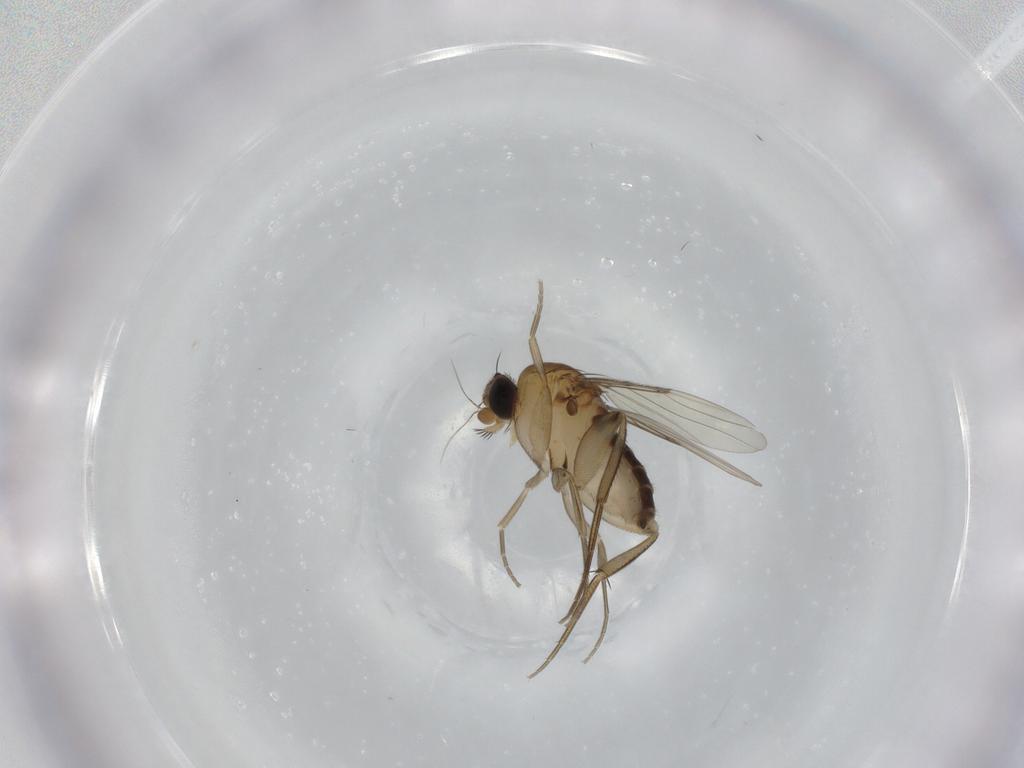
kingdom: Animalia
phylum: Arthropoda
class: Insecta
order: Diptera
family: Phoridae
